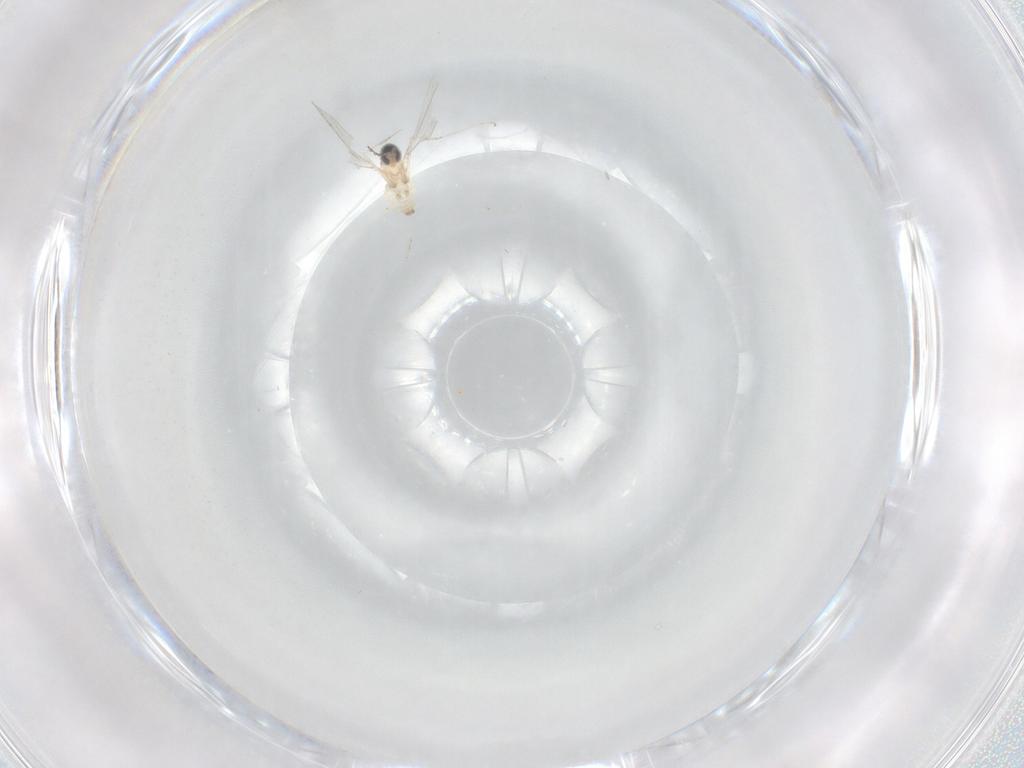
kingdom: Animalia
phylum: Arthropoda
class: Insecta
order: Diptera
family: Cecidomyiidae
